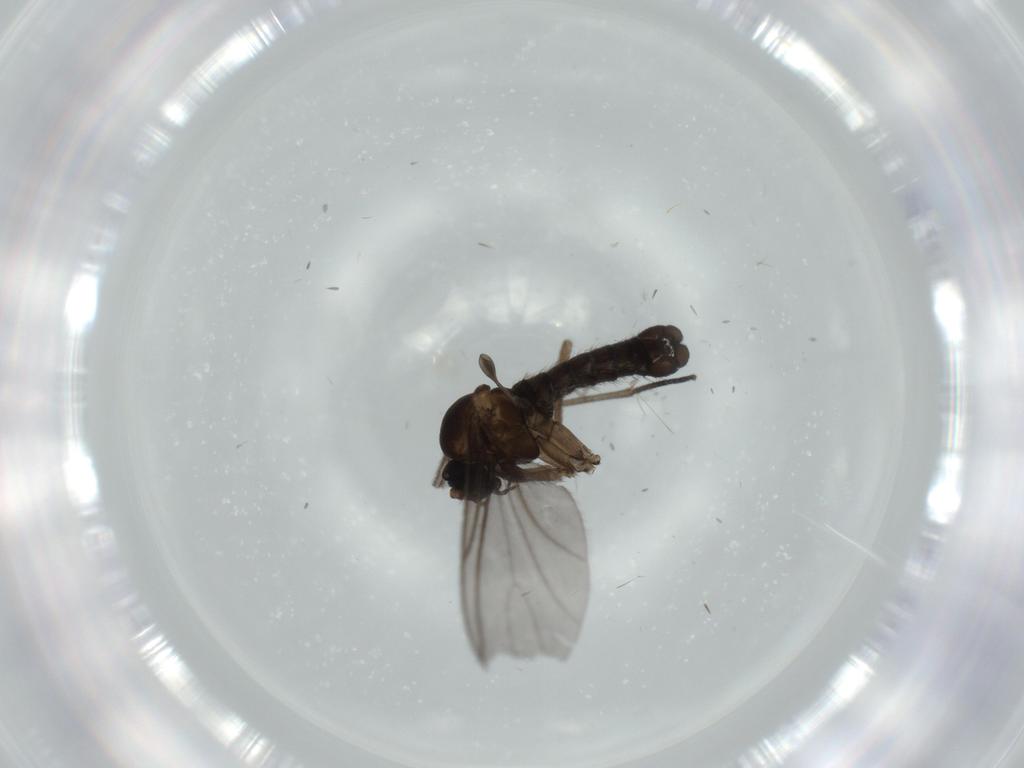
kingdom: Animalia
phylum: Arthropoda
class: Insecta
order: Diptera
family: Sciaridae
